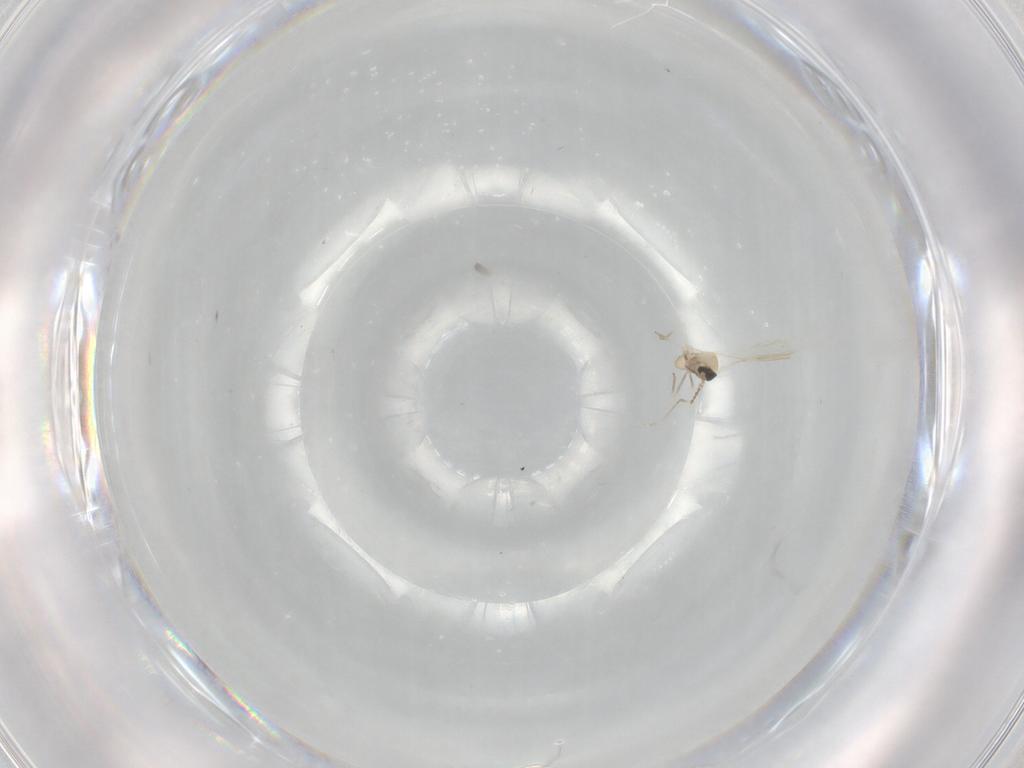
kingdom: Animalia
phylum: Arthropoda
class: Insecta
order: Diptera
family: Cecidomyiidae
